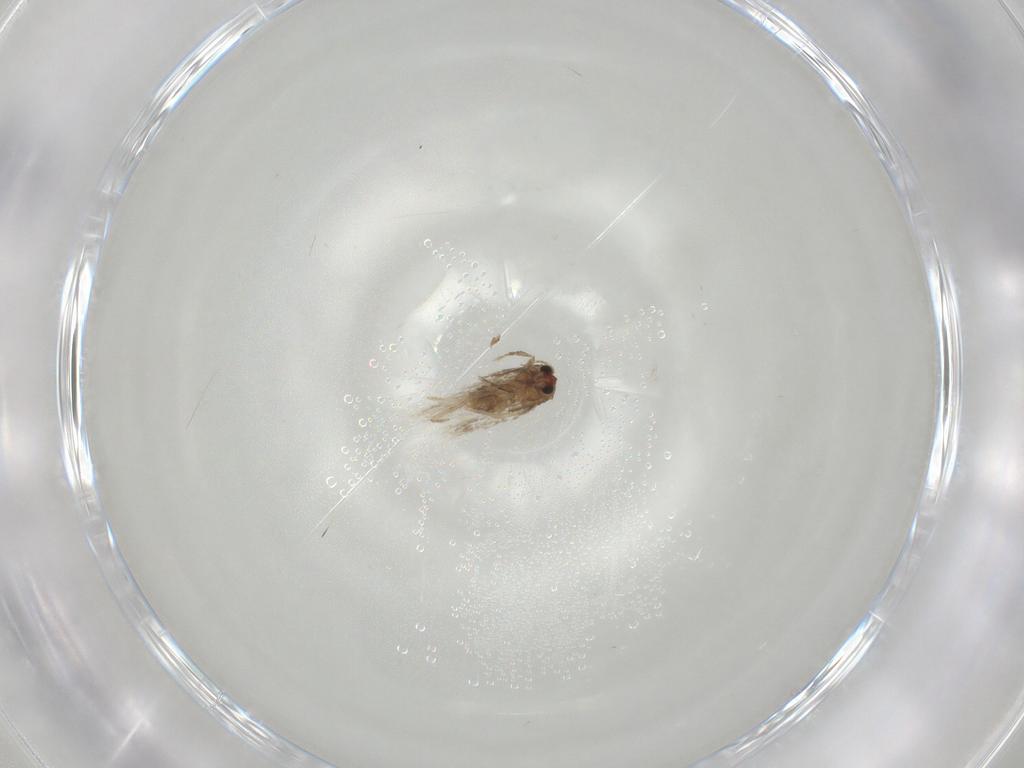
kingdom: Animalia
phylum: Arthropoda
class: Insecta
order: Lepidoptera
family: Nepticulidae
